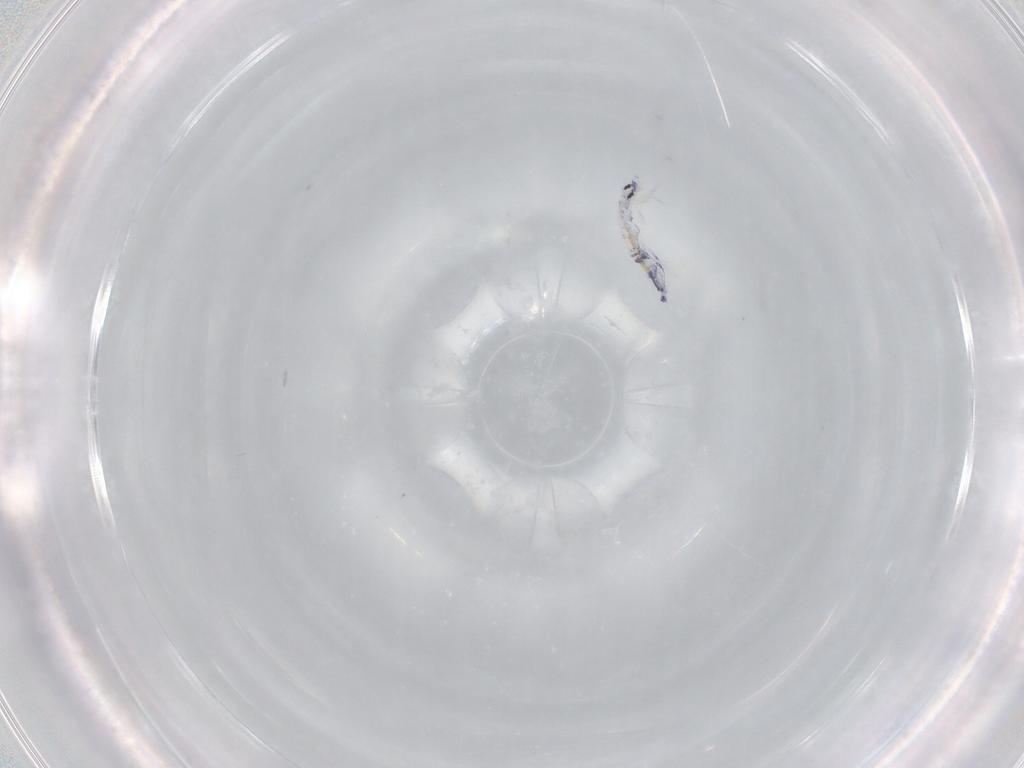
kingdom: Animalia
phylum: Arthropoda
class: Collembola
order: Entomobryomorpha
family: Entomobryidae
